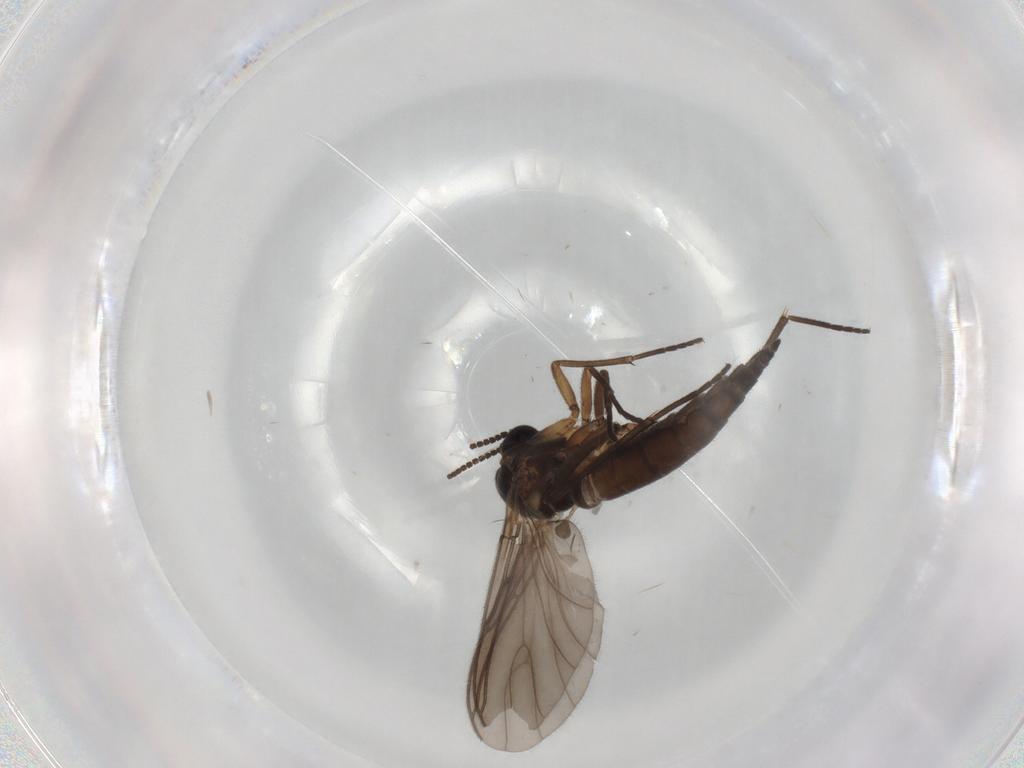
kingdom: Animalia
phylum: Arthropoda
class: Insecta
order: Diptera
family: Sciaridae
